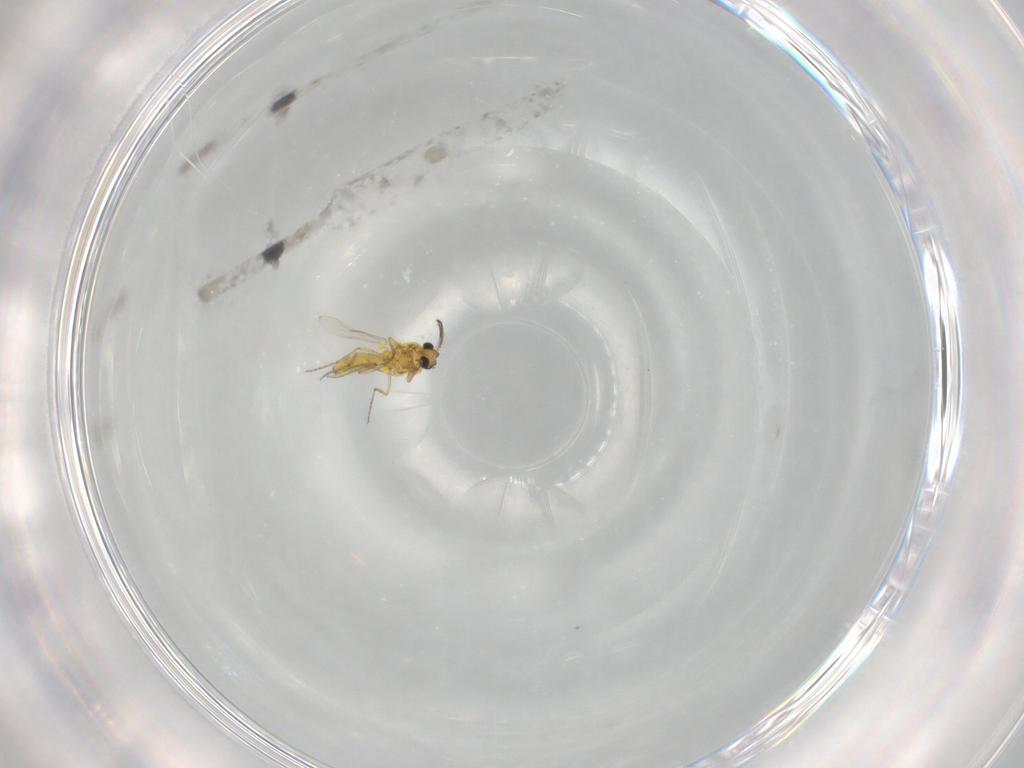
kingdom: Animalia
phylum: Arthropoda
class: Insecta
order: Diptera
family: Ceratopogonidae
